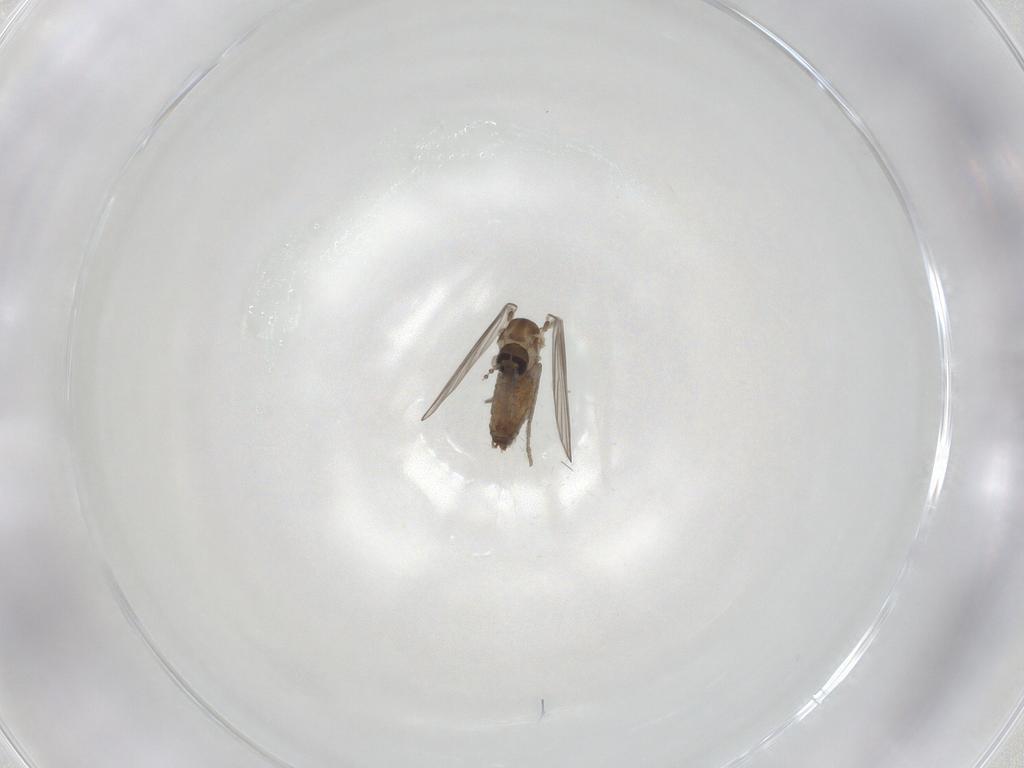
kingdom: Animalia
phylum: Arthropoda
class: Insecta
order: Diptera
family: Psychodidae
